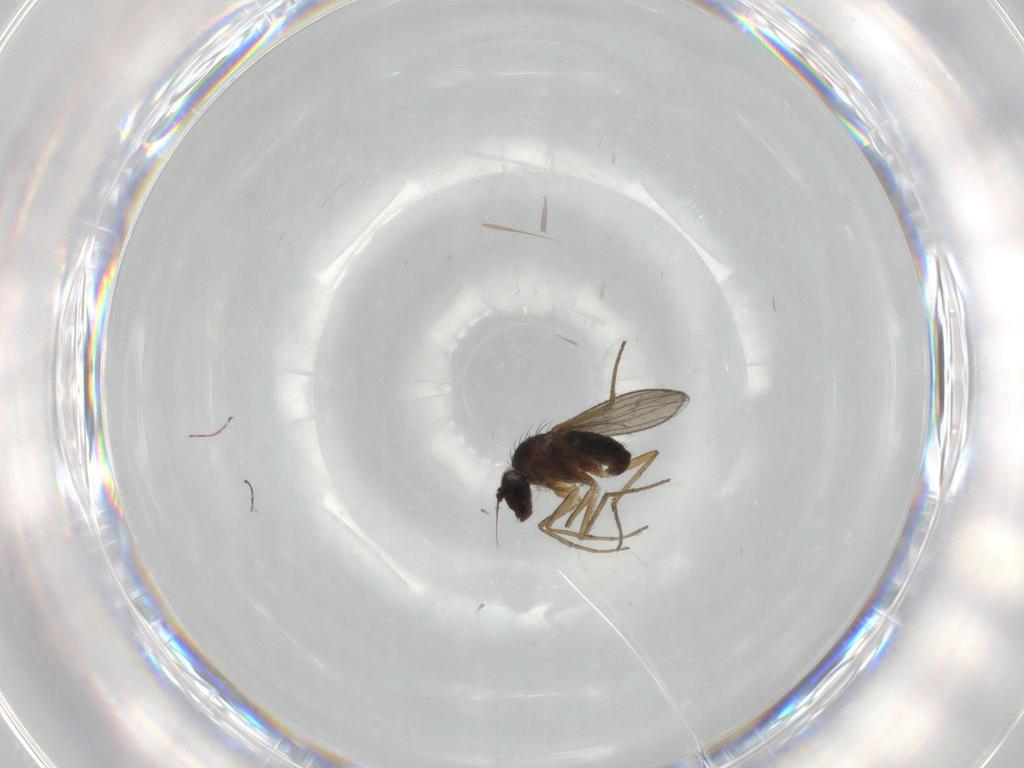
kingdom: Animalia
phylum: Arthropoda
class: Insecta
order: Diptera
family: Dolichopodidae
